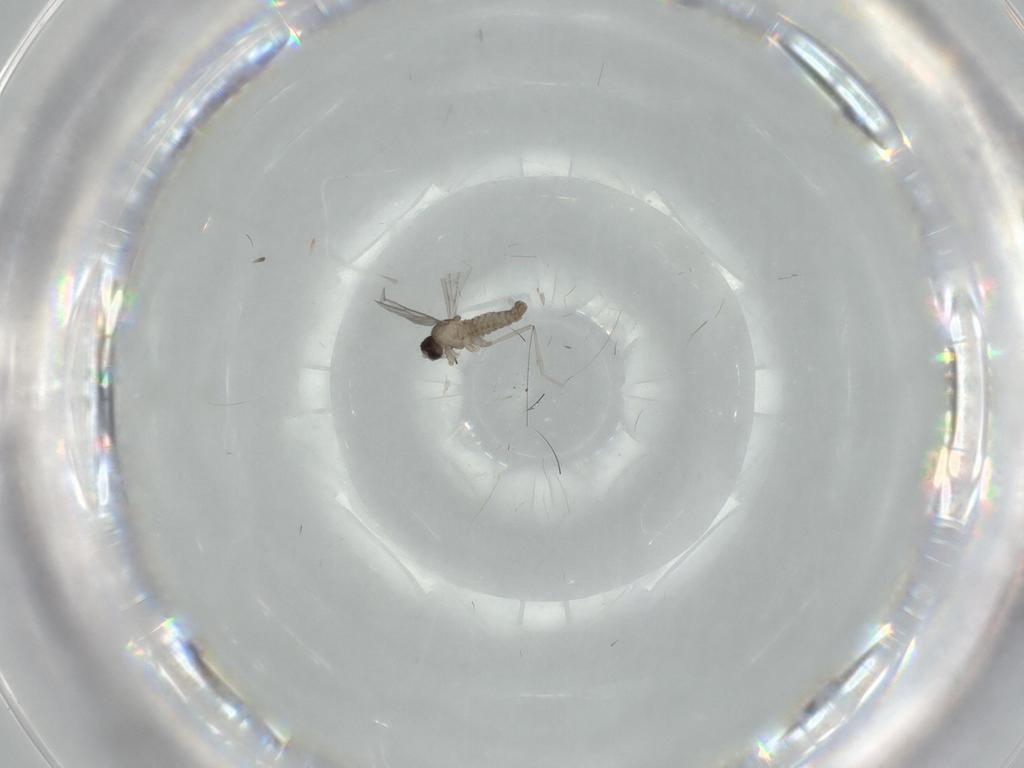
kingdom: Animalia
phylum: Arthropoda
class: Insecta
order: Diptera
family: Cecidomyiidae
